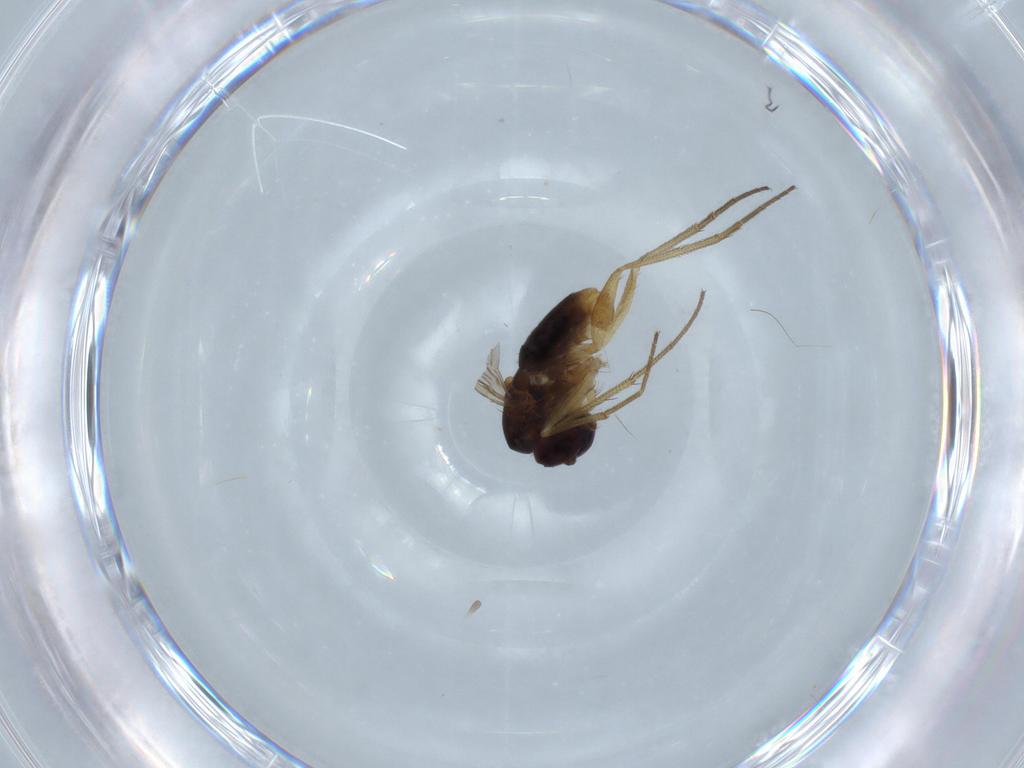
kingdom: Animalia
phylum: Arthropoda
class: Insecta
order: Diptera
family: Dolichopodidae
